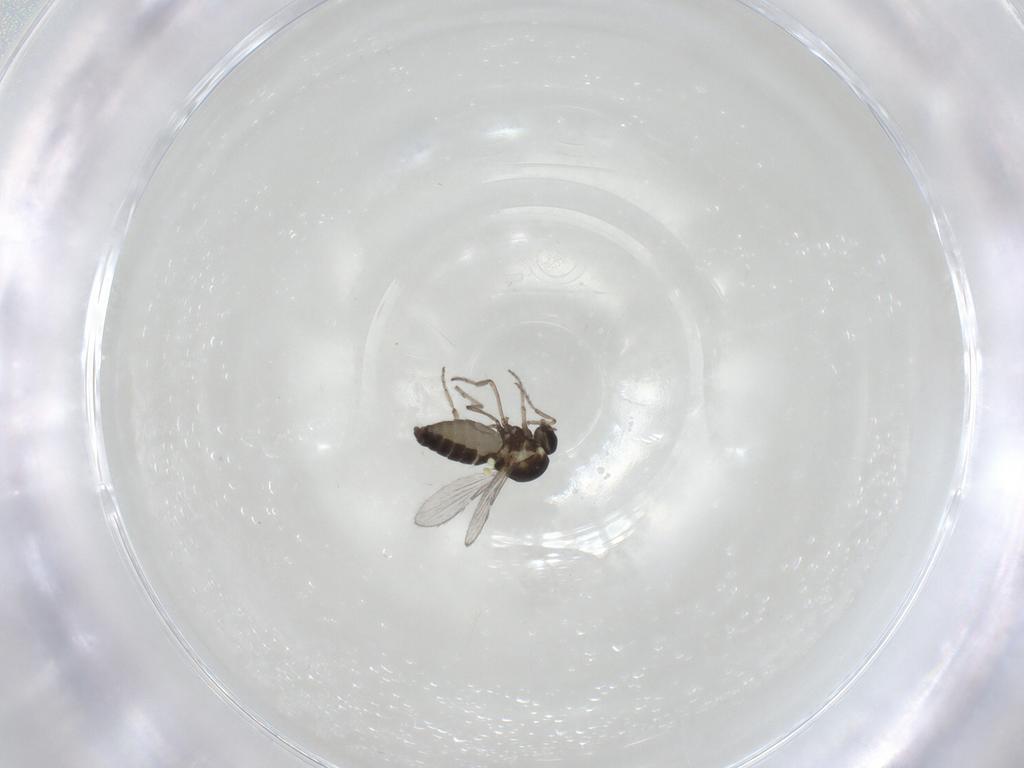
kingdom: Animalia
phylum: Arthropoda
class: Insecta
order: Diptera
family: Ceratopogonidae
